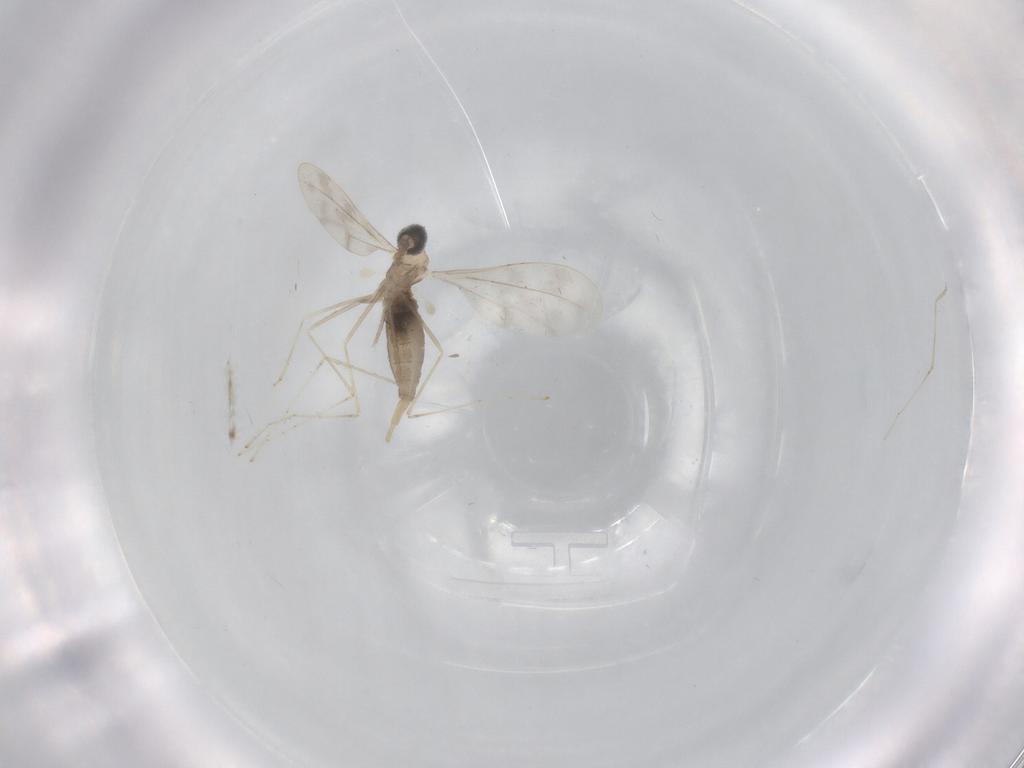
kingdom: Animalia
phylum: Arthropoda
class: Insecta
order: Diptera
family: Cecidomyiidae
